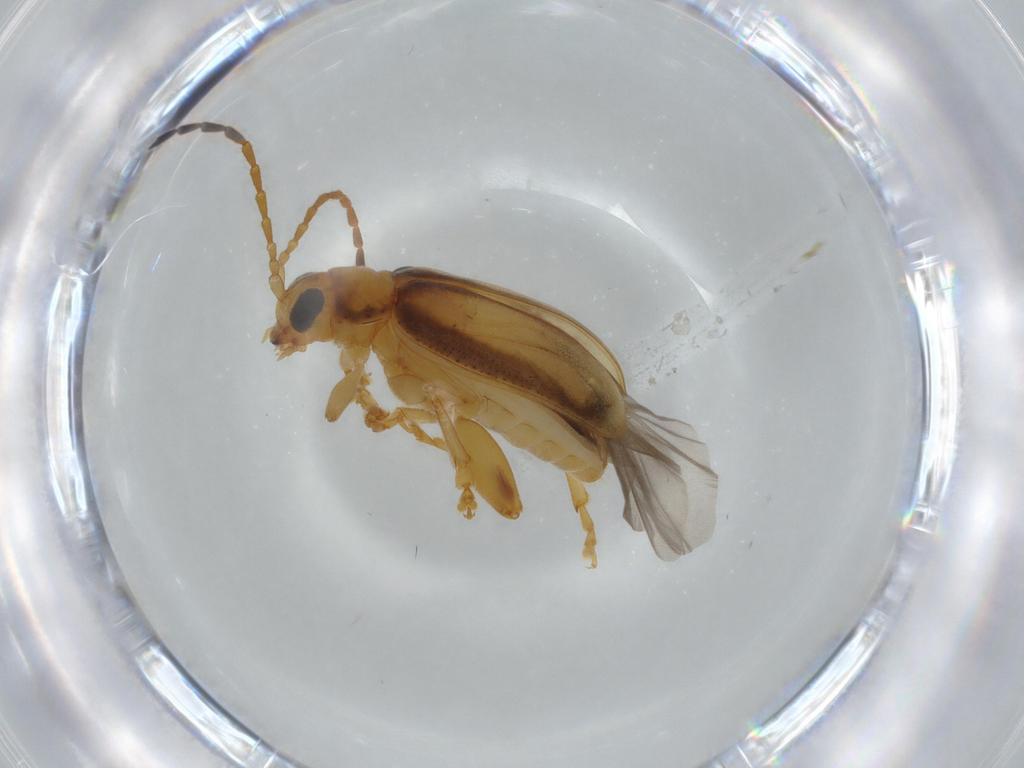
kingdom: Animalia
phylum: Arthropoda
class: Insecta
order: Coleoptera
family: Chrysomelidae
